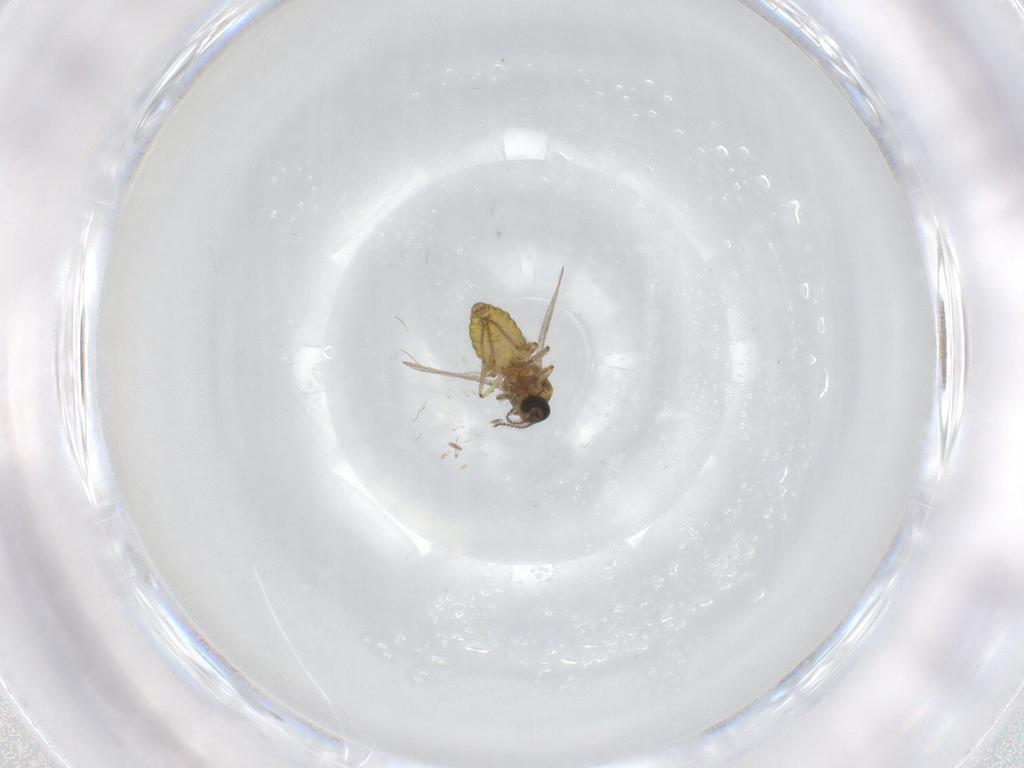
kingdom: Animalia
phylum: Arthropoda
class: Insecta
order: Diptera
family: Ceratopogonidae
